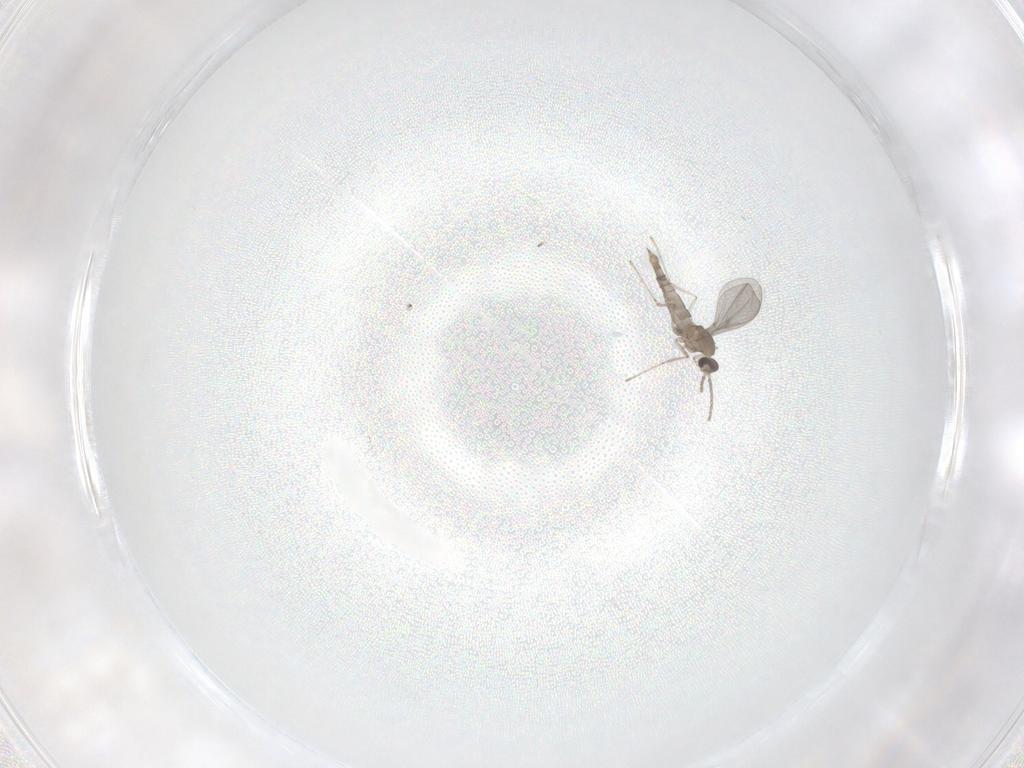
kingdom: Animalia
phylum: Arthropoda
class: Insecta
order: Diptera
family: Cecidomyiidae
